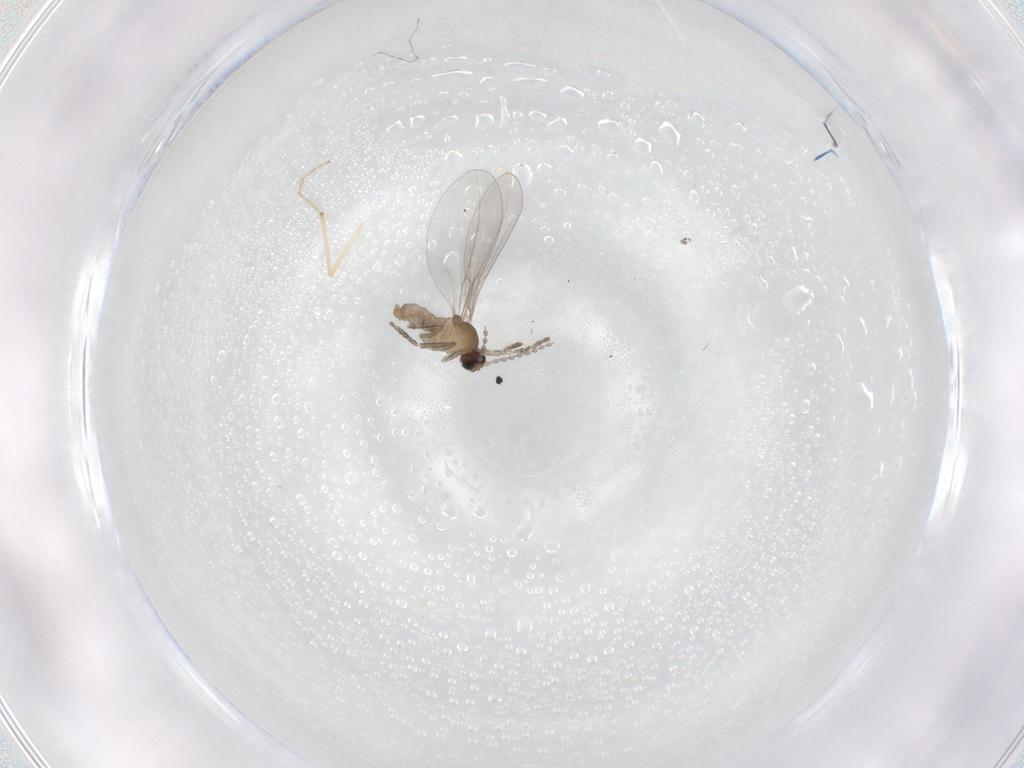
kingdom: Animalia
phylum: Arthropoda
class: Insecta
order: Diptera
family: Cecidomyiidae
